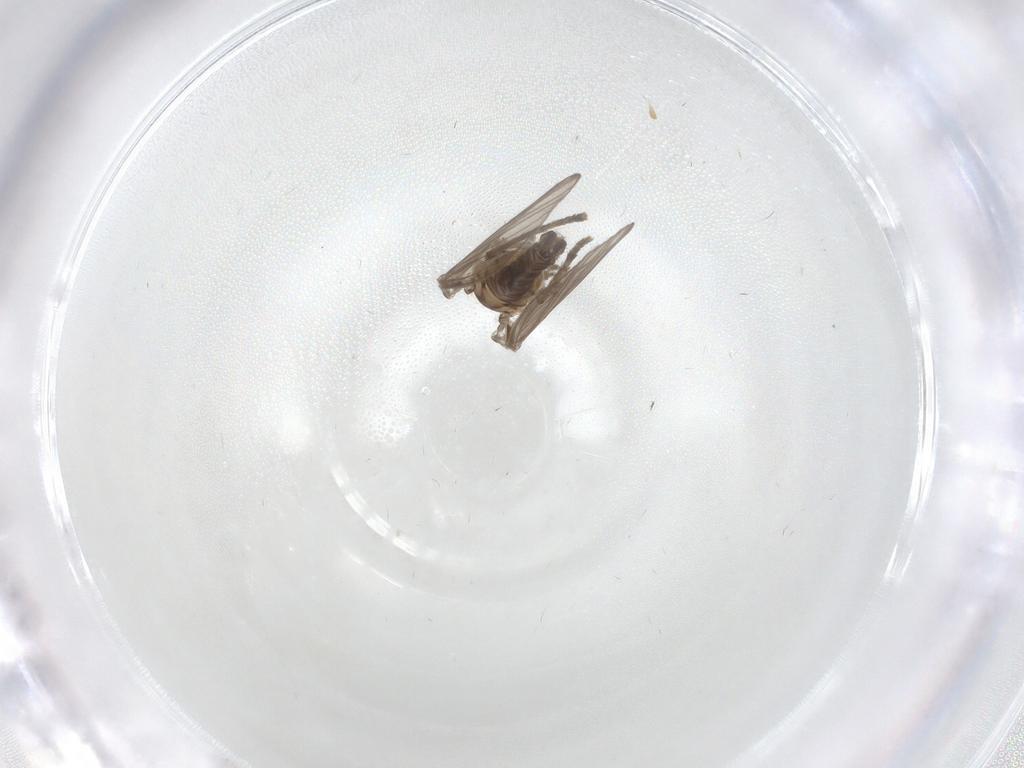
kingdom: Animalia
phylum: Arthropoda
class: Insecta
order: Diptera
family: Psychodidae
